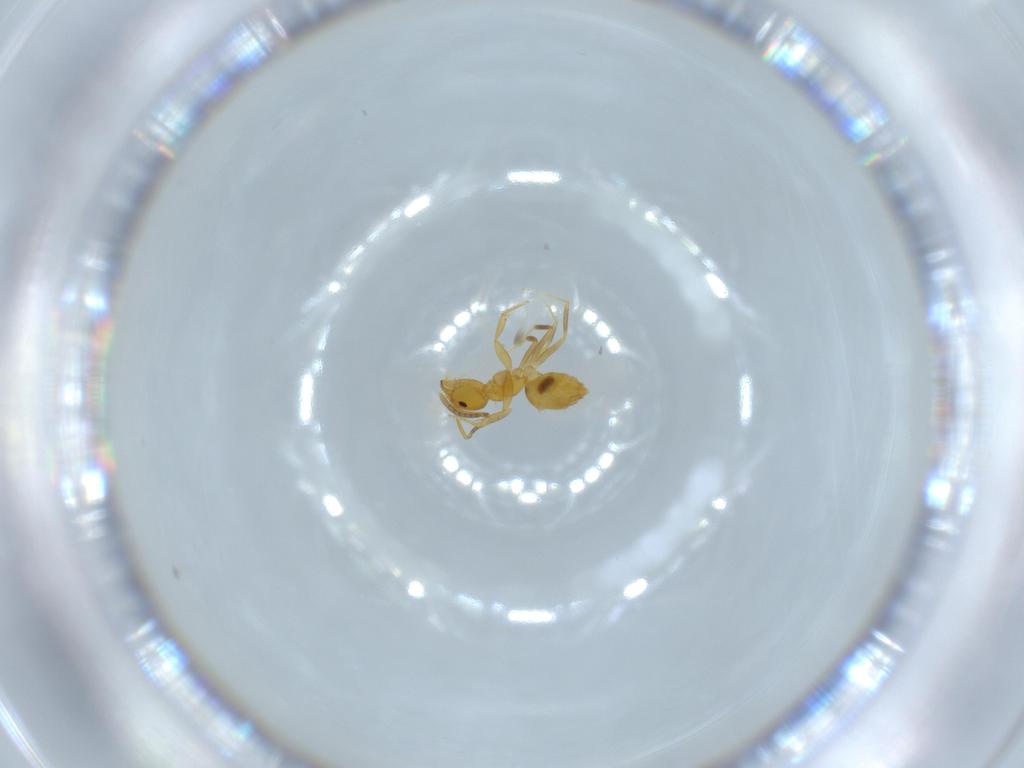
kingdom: Animalia
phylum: Arthropoda
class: Insecta
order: Hymenoptera
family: Formicidae
